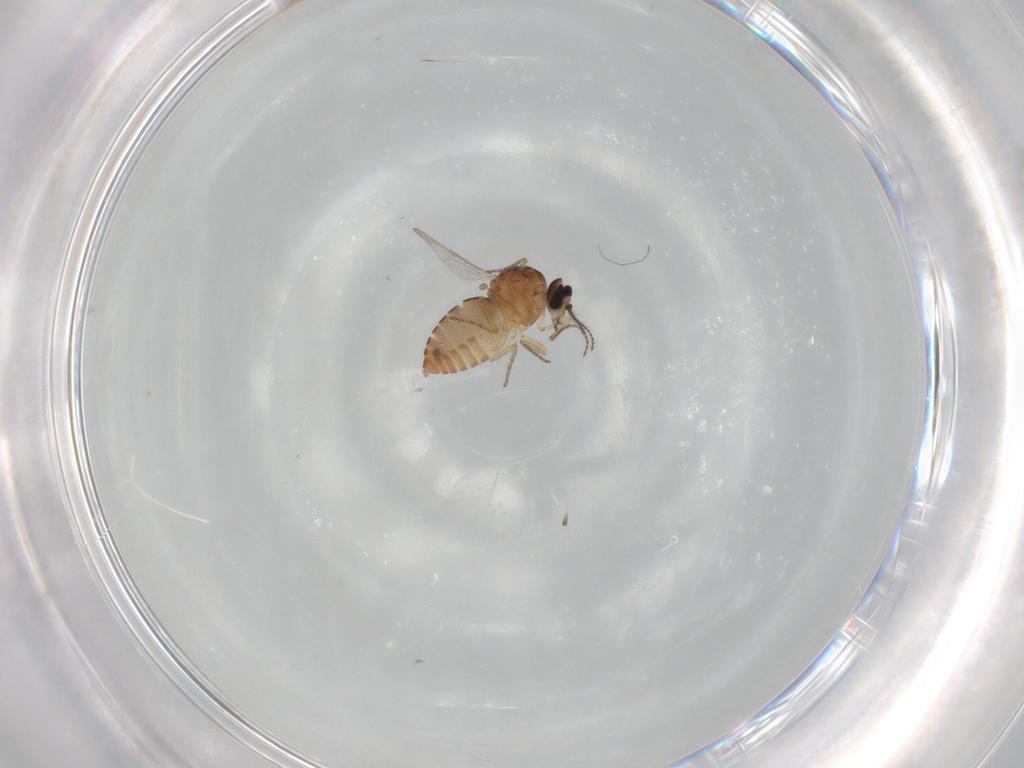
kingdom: Animalia
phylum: Arthropoda
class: Insecta
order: Diptera
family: Ceratopogonidae
